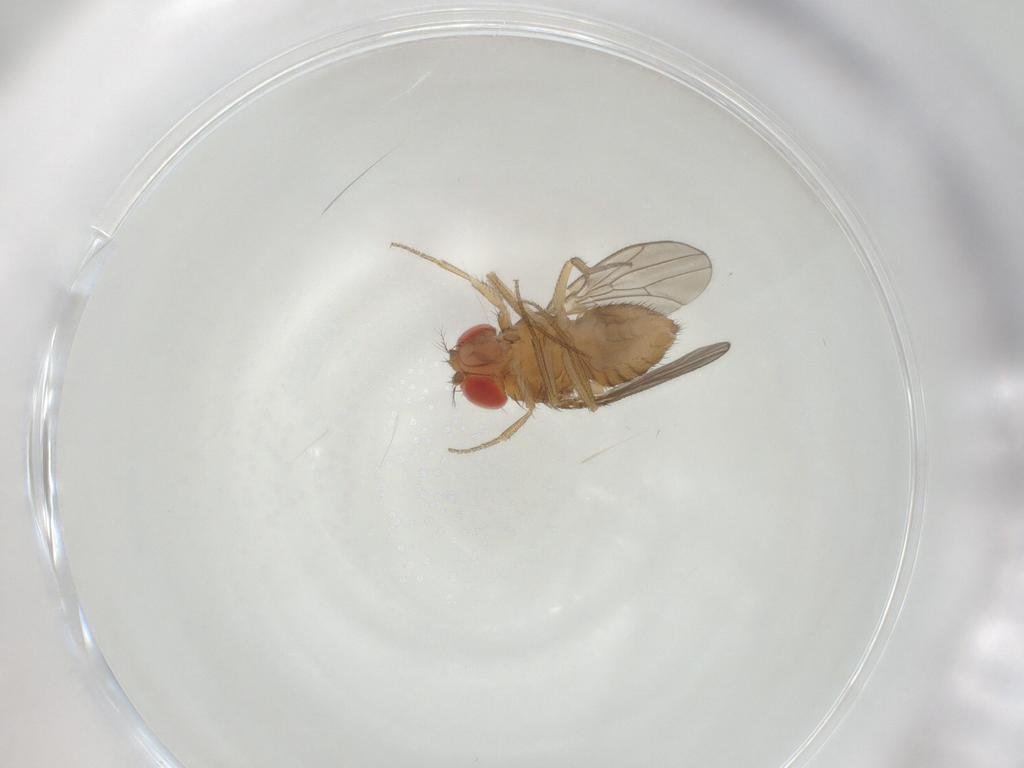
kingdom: Animalia
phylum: Arthropoda
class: Insecta
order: Diptera
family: Drosophilidae
